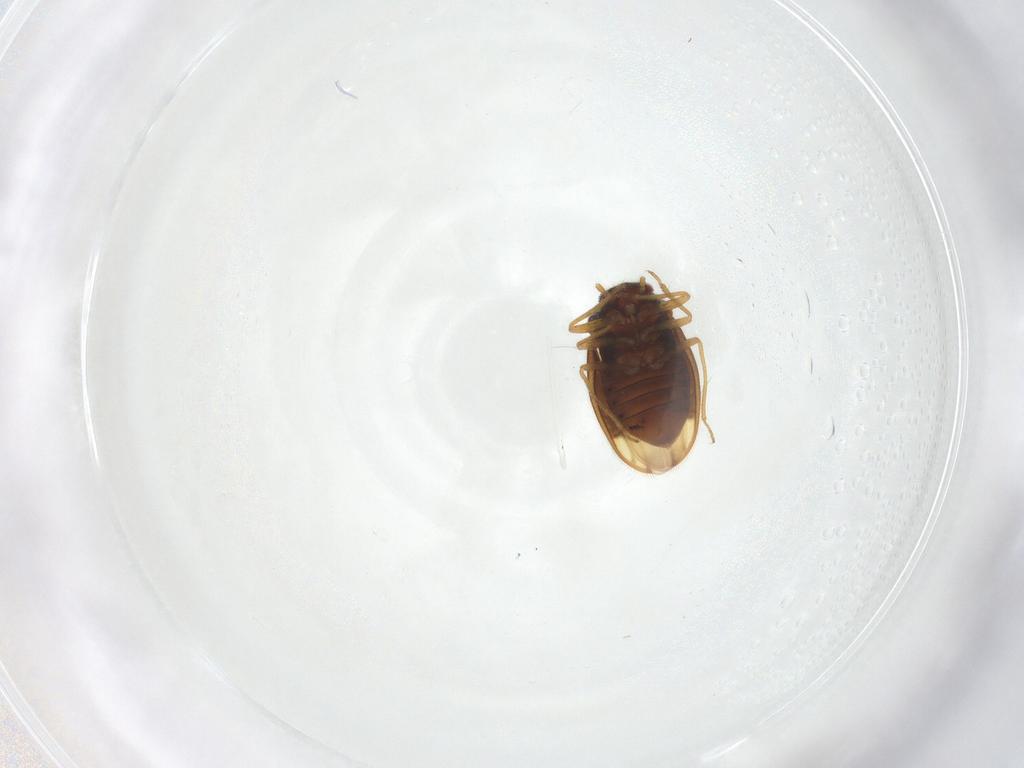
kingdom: Animalia
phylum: Arthropoda
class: Insecta
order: Hemiptera
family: Schizopteridae
